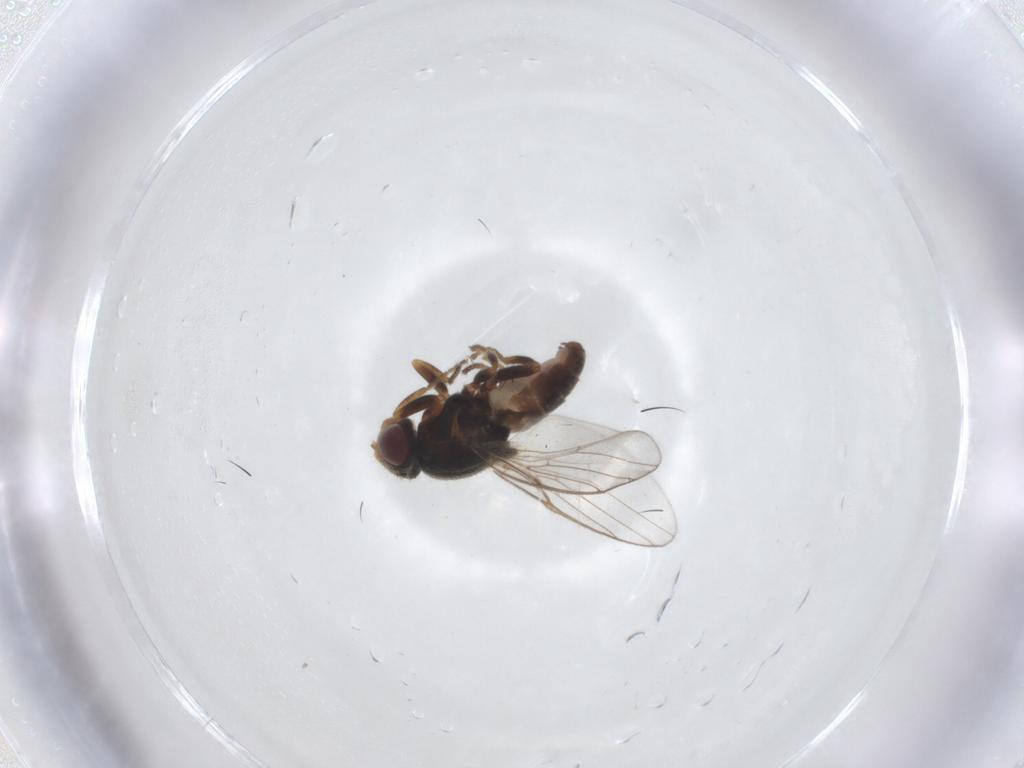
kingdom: Animalia
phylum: Arthropoda
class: Insecta
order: Diptera
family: Chloropidae
